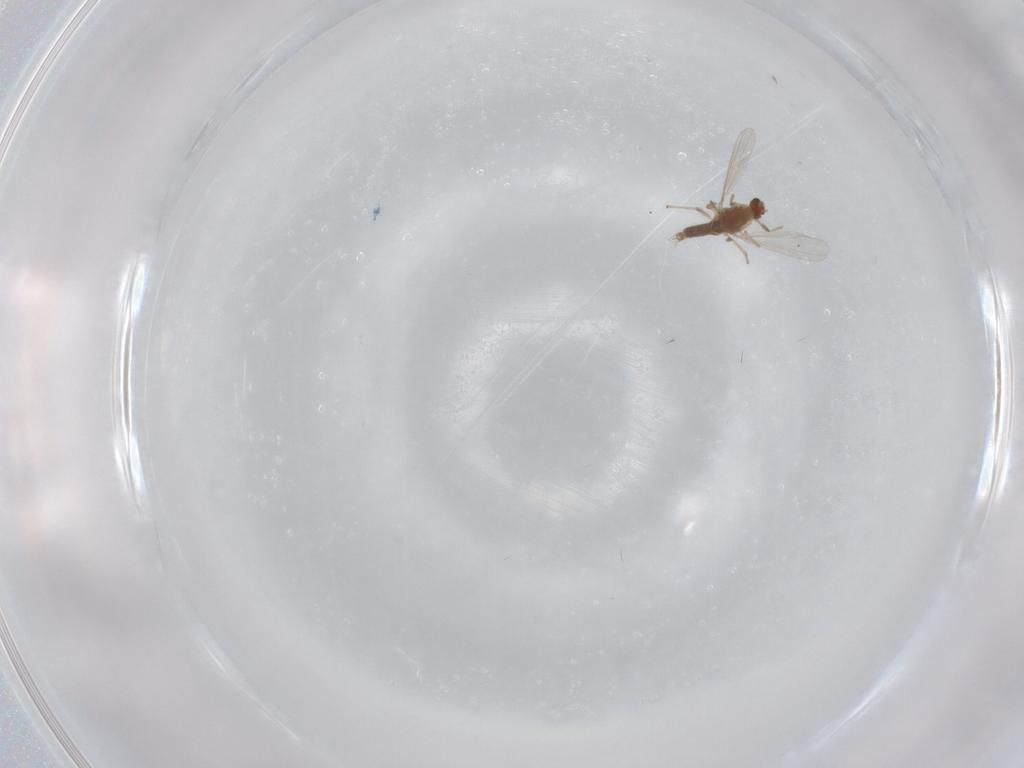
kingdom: Animalia
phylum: Arthropoda
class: Insecta
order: Diptera
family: Chironomidae
